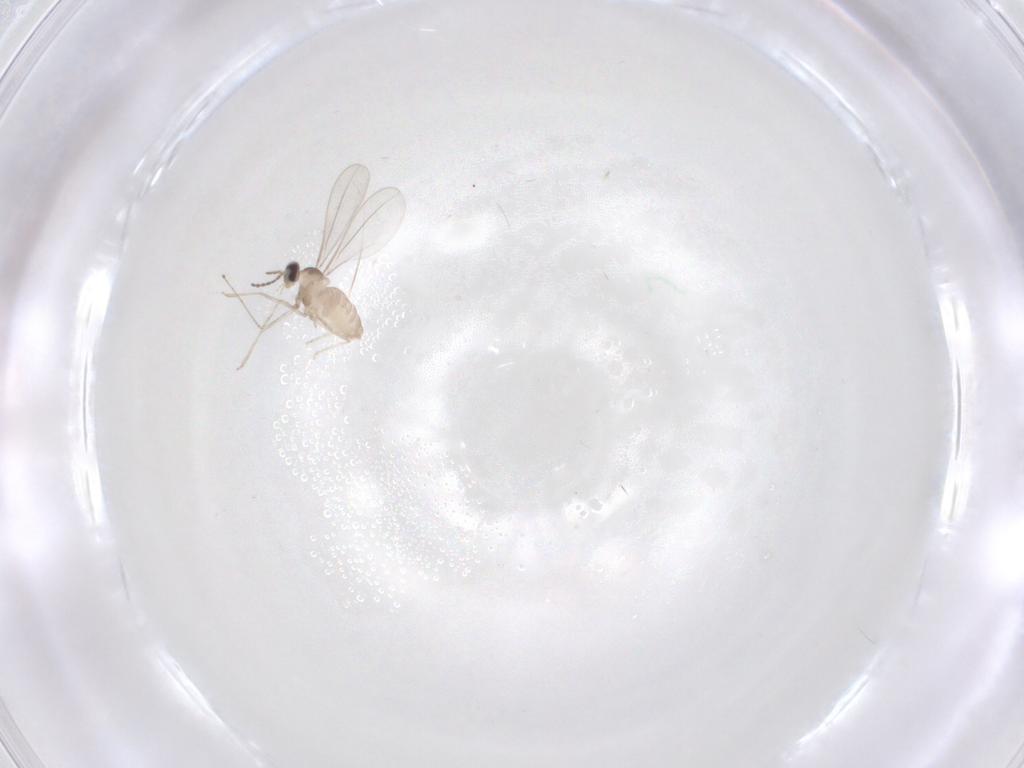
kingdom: Animalia
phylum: Arthropoda
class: Insecta
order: Diptera
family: Cecidomyiidae
